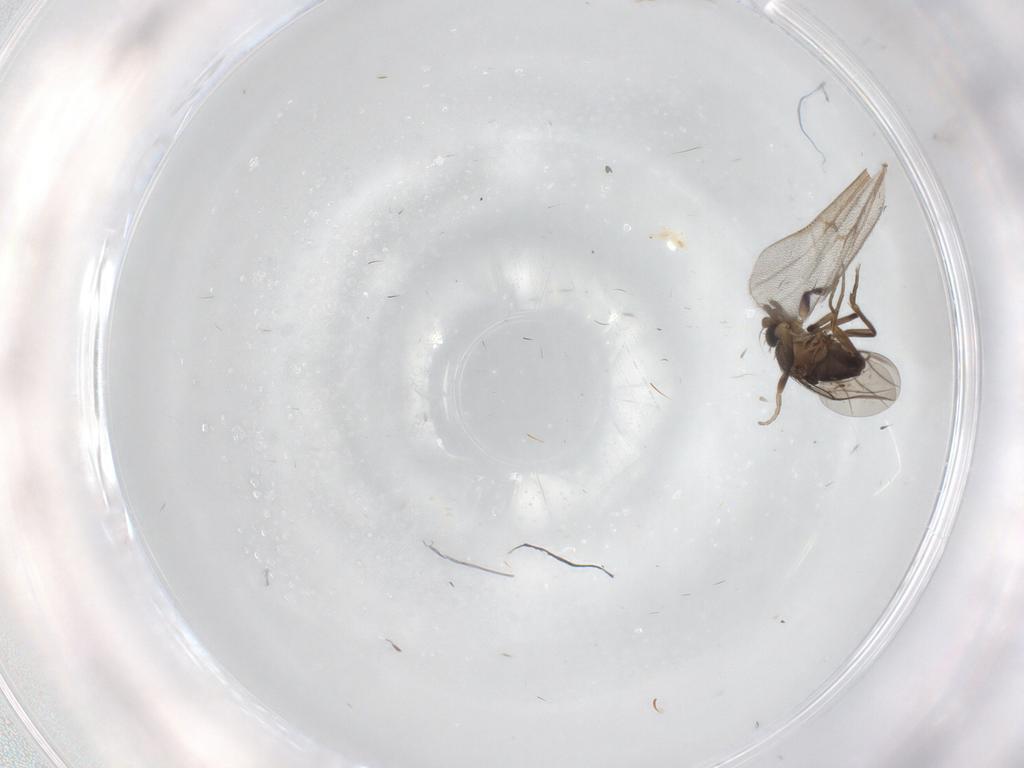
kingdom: Animalia
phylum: Arthropoda
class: Insecta
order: Diptera
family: Phoridae
